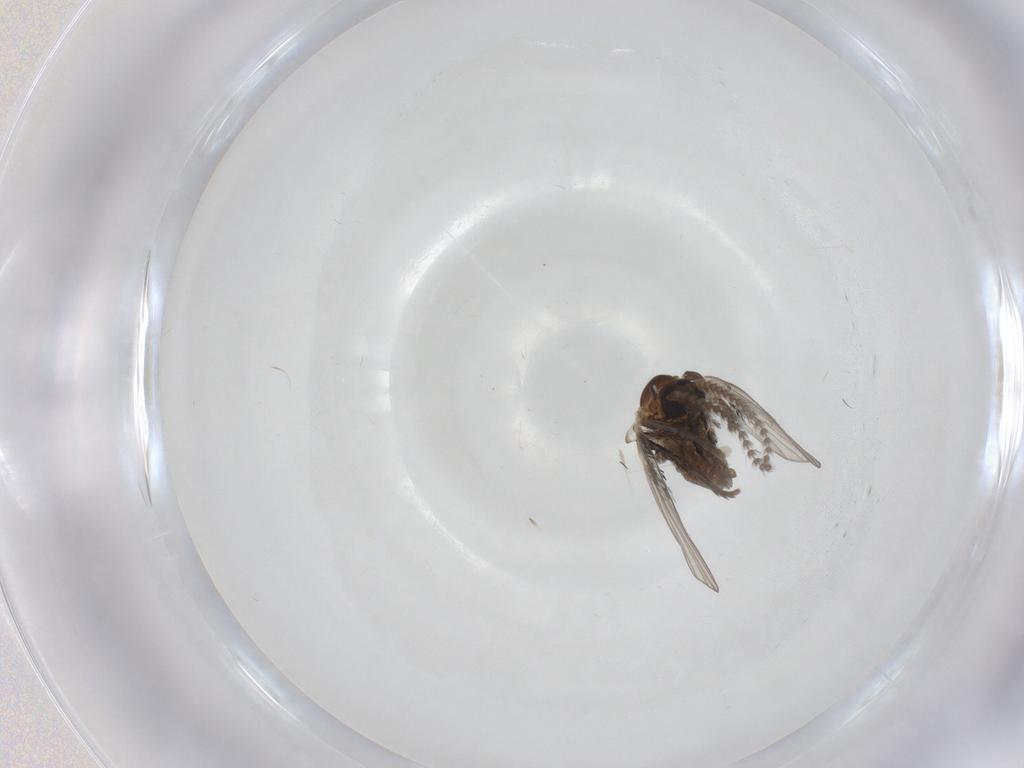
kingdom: Animalia
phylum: Arthropoda
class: Insecta
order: Diptera
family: Psychodidae
